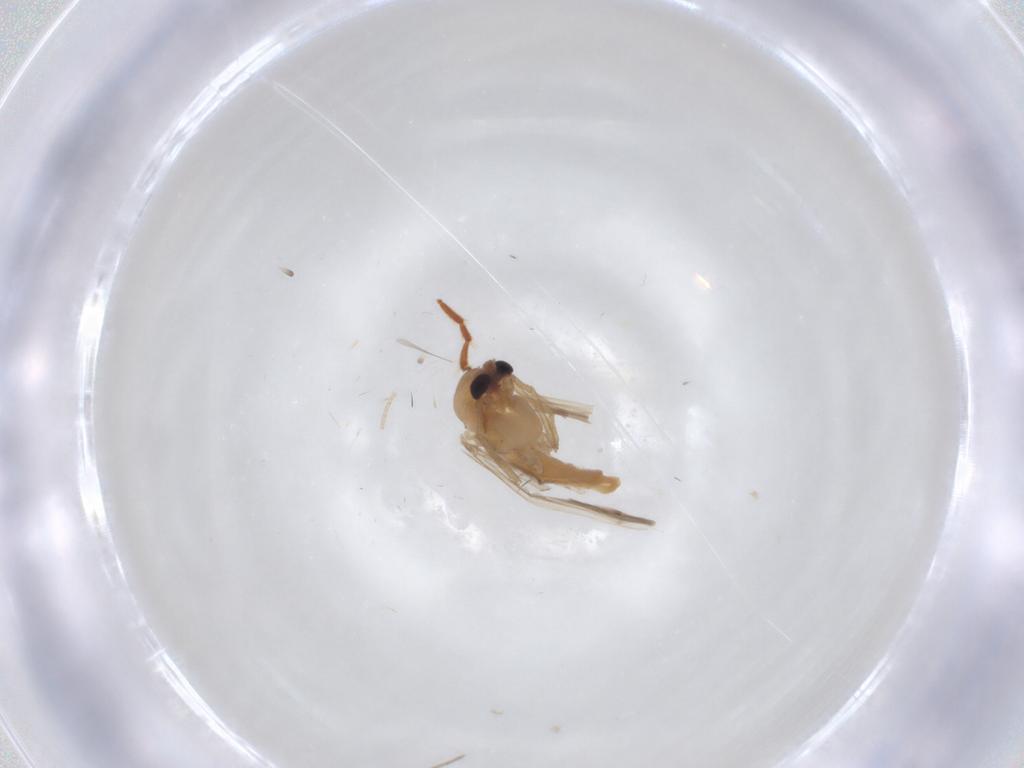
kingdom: Animalia
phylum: Arthropoda
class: Insecta
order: Diptera
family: Chironomidae
